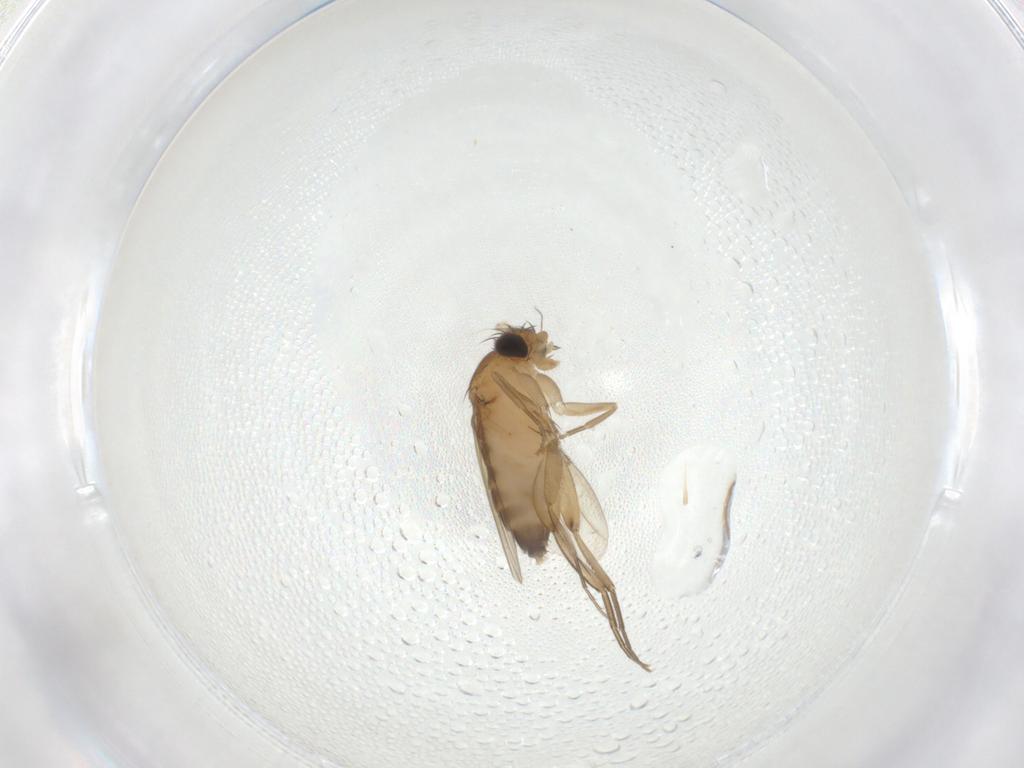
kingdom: Animalia
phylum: Arthropoda
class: Insecta
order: Diptera
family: Phoridae
